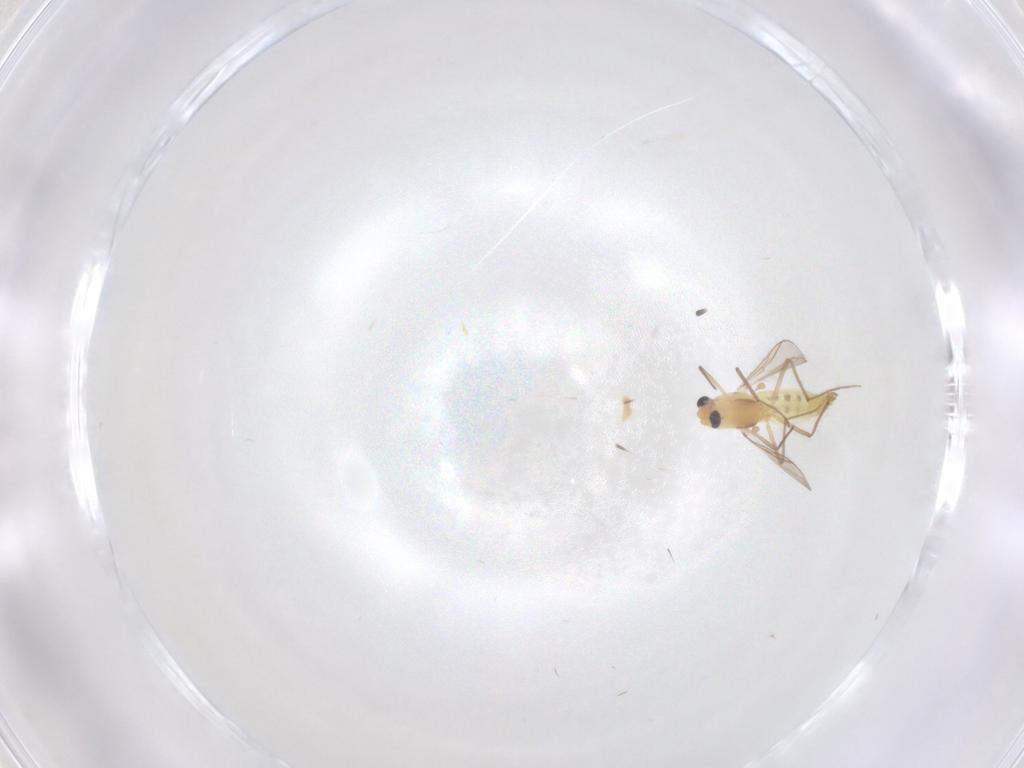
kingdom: Animalia
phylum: Arthropoda
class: Insecta
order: Diptera
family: Chironomidae
